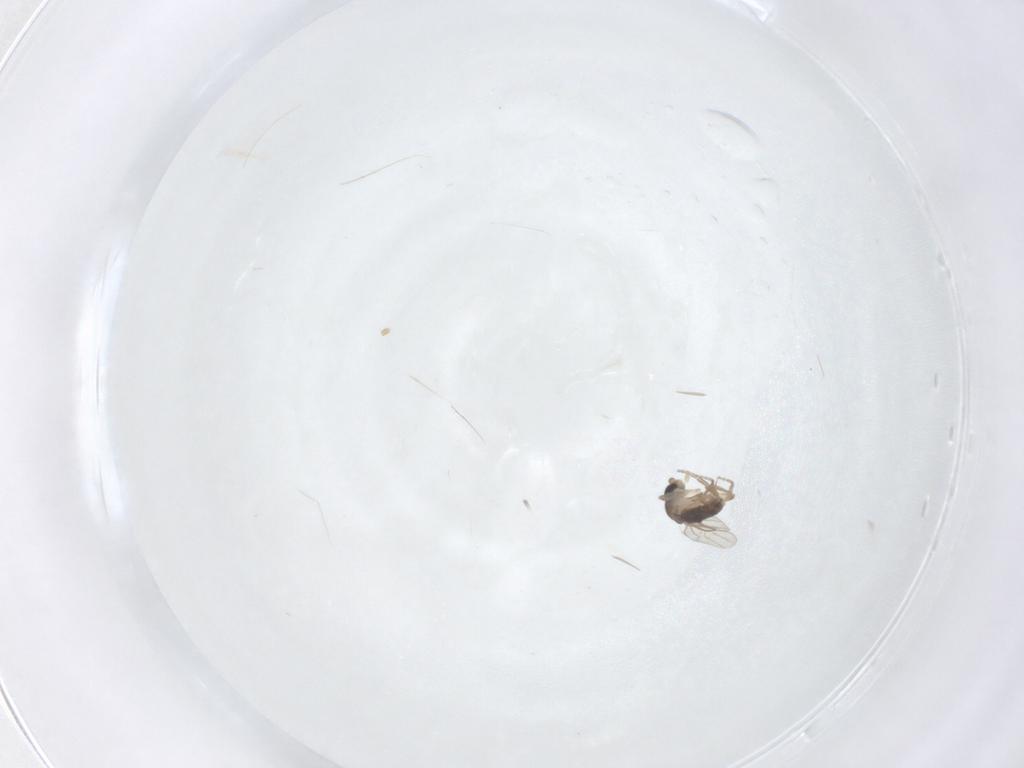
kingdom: Animalia
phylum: Arthropoda
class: Insecta
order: Diptera
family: Phoridae
